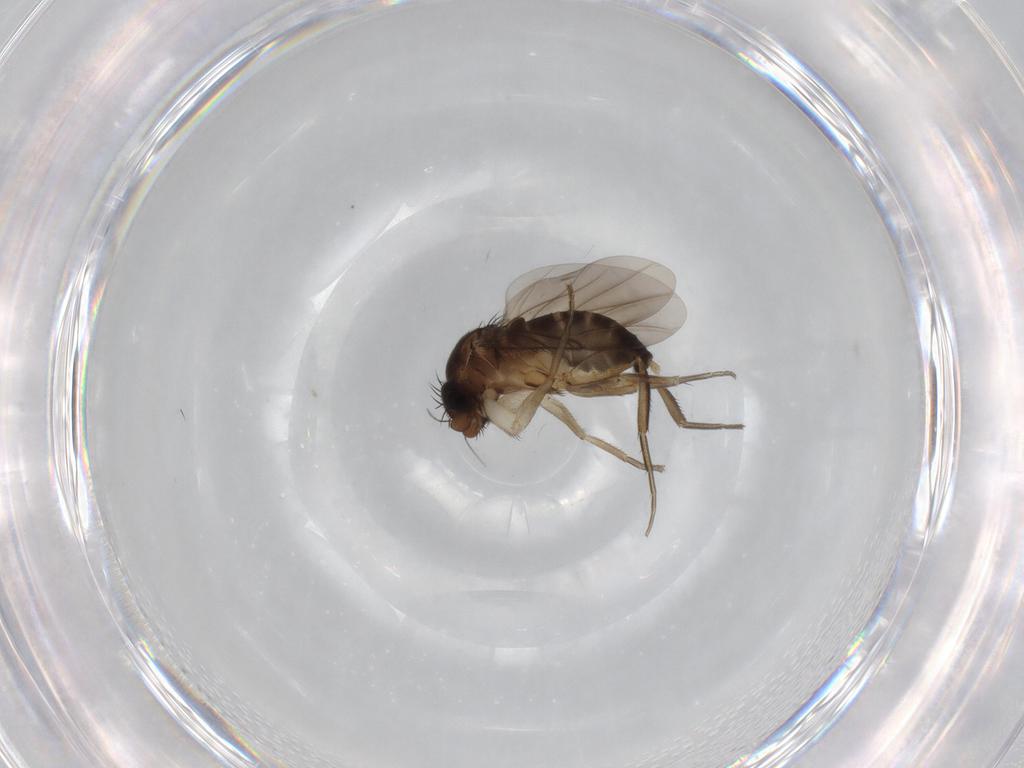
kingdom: Animalia
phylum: Arthropoda
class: Insecta
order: Diptera
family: Phoridae
